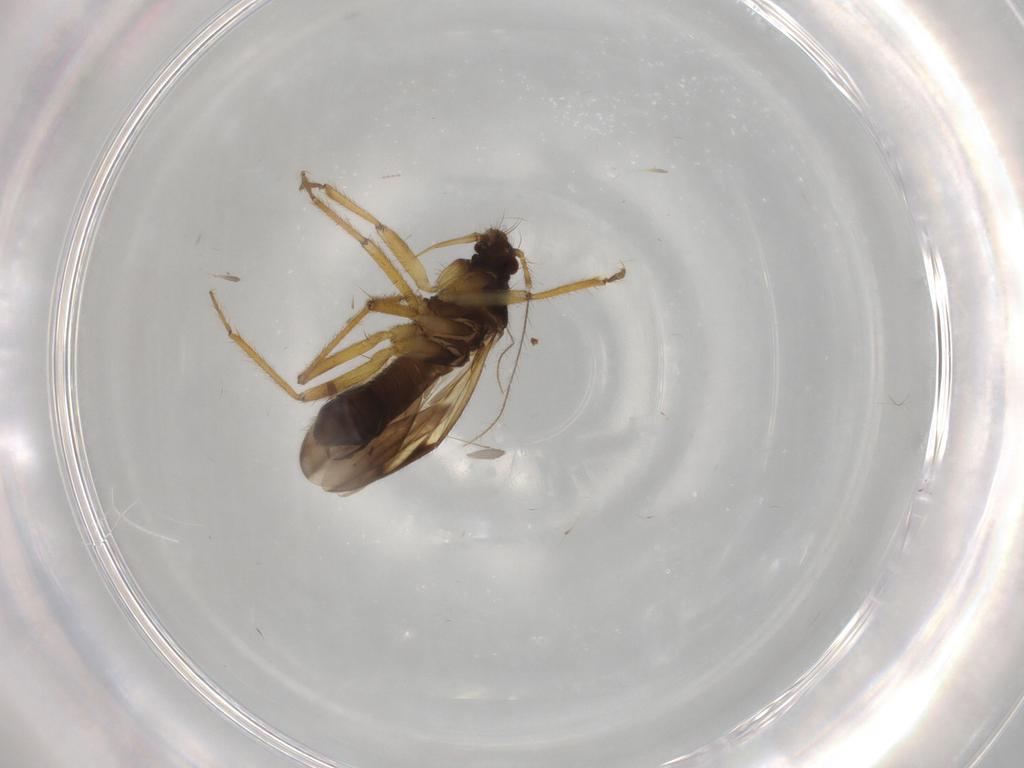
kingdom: Animalia
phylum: Arthropoda
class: Insecta
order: Hemiptera
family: Ceratocombidae
